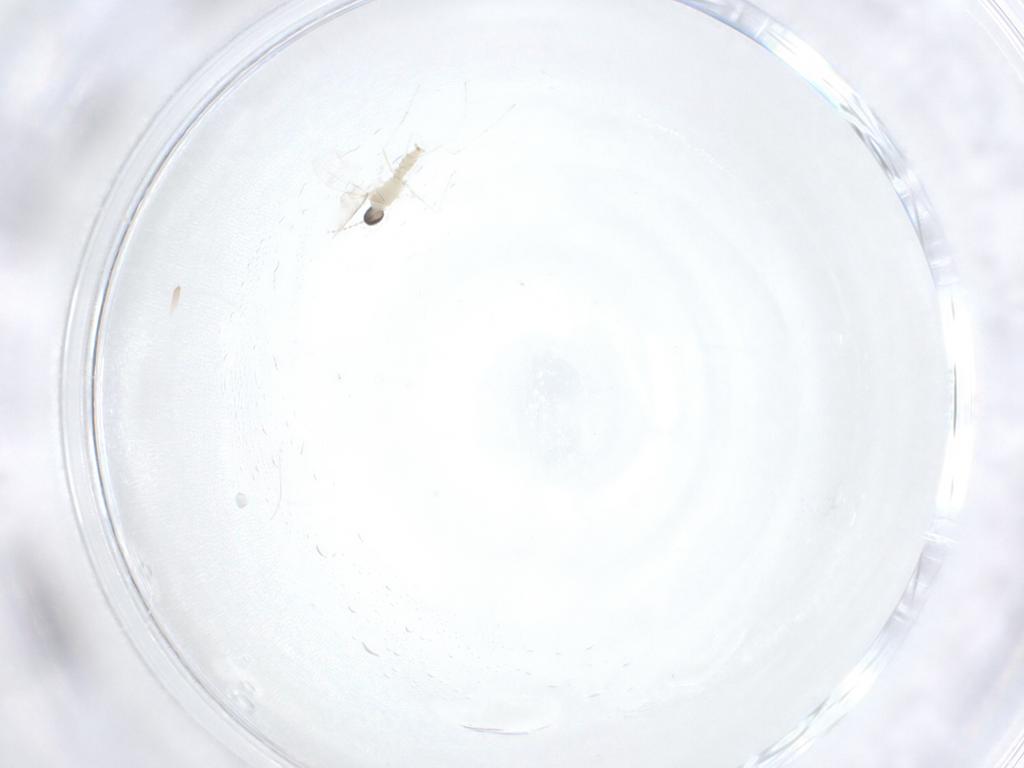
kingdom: Animalia
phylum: Arthropoda
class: Insecta
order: Diptera
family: Cecidomyiidae
